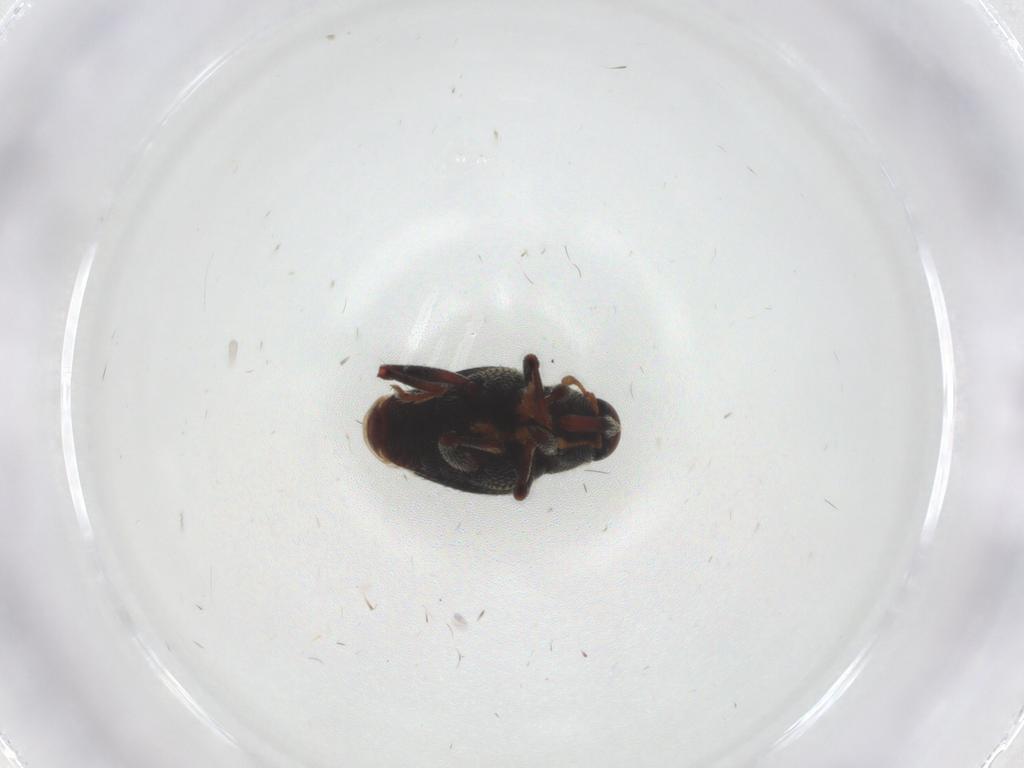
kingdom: Animalia
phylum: Arthropoda
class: Insecta
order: Coleoptera
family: Curculionidae
